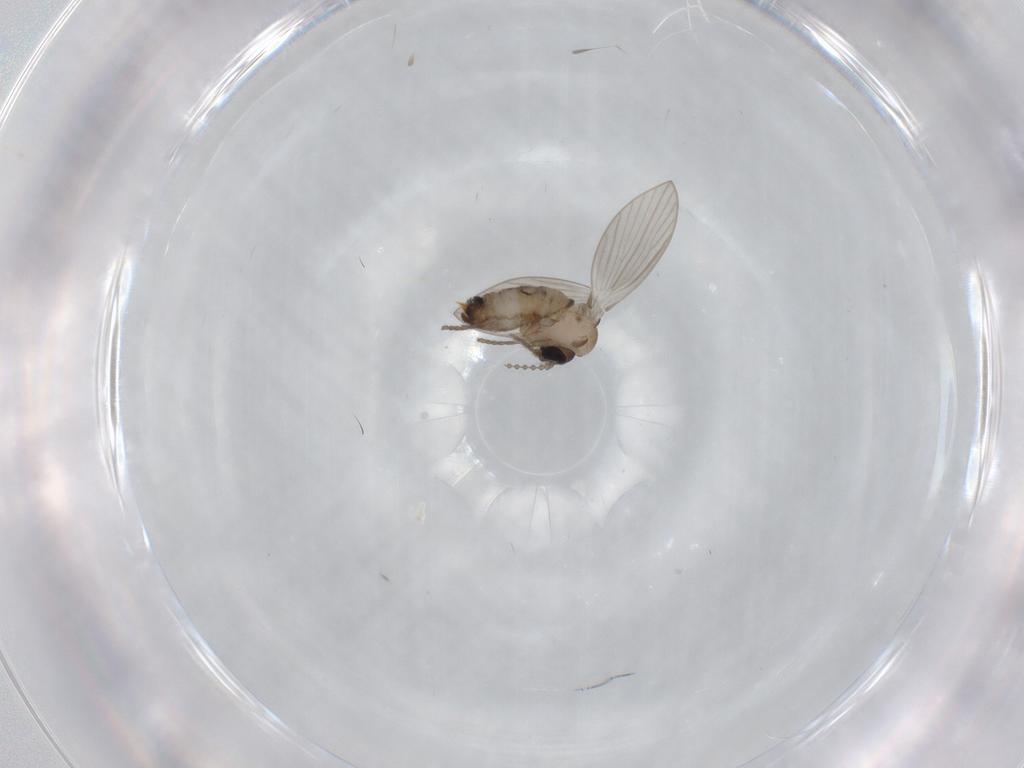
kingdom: Animalia
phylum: Arthropoda
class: Insecta
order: Diptera
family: Psychodidae
